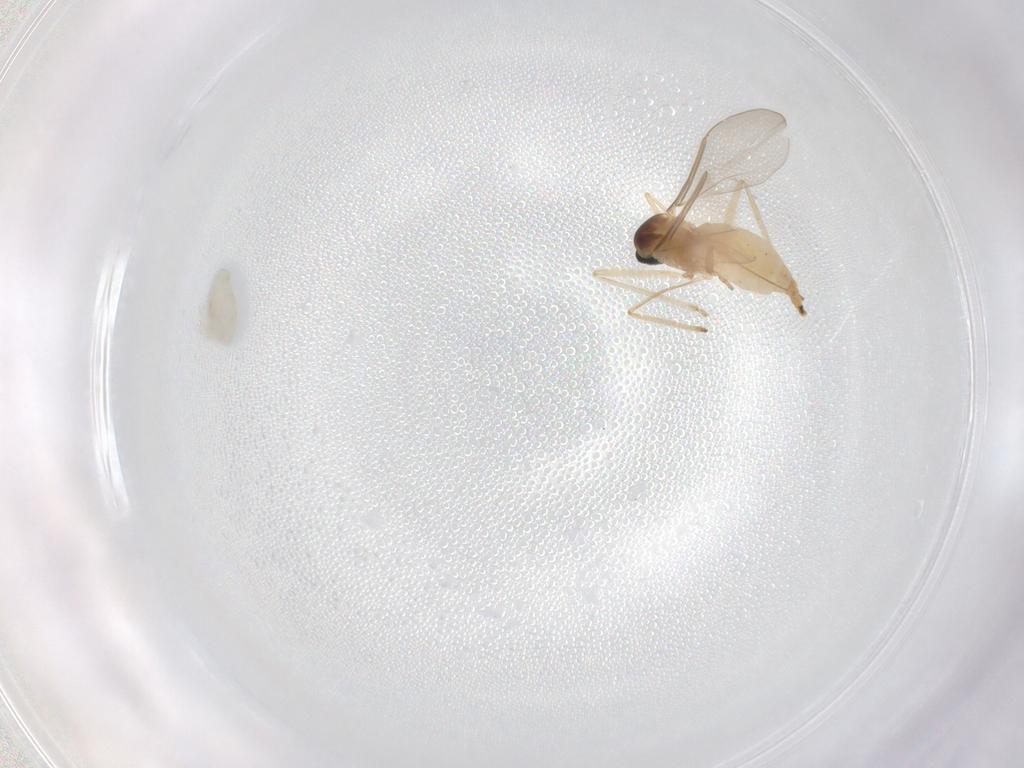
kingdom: Animalia
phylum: Arthropoda
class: Insecta
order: Diptera
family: Cecidomyiidae
